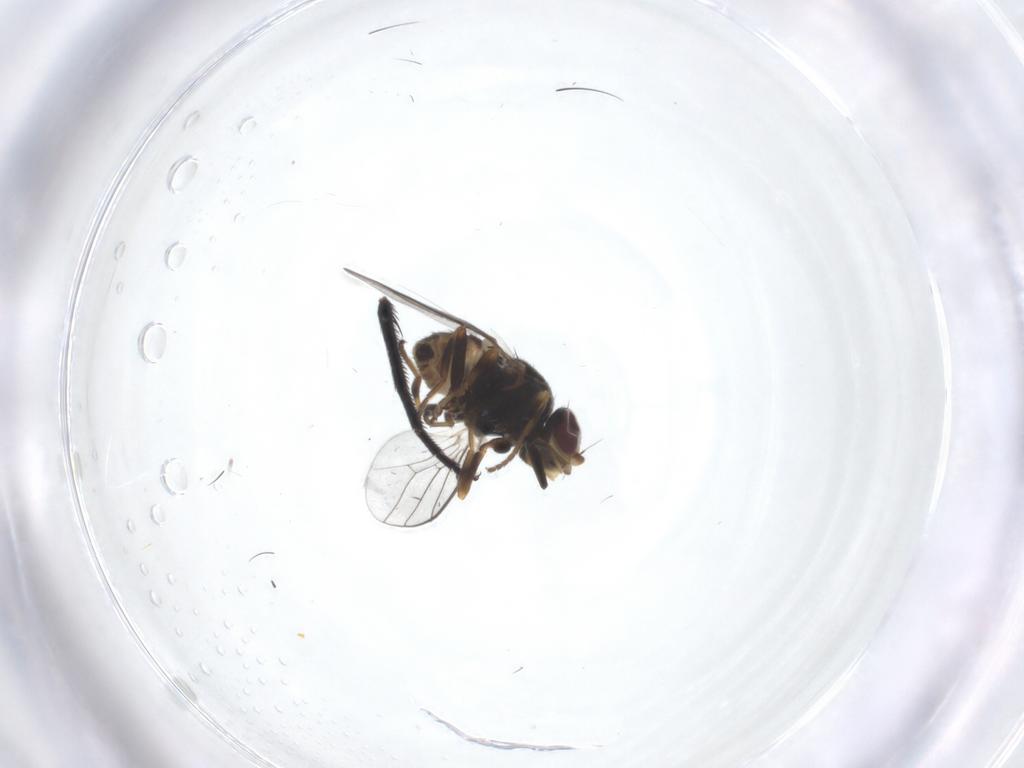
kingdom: Animalia
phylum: Arthropoda
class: Insecta
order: Diptera
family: Chloropidae
